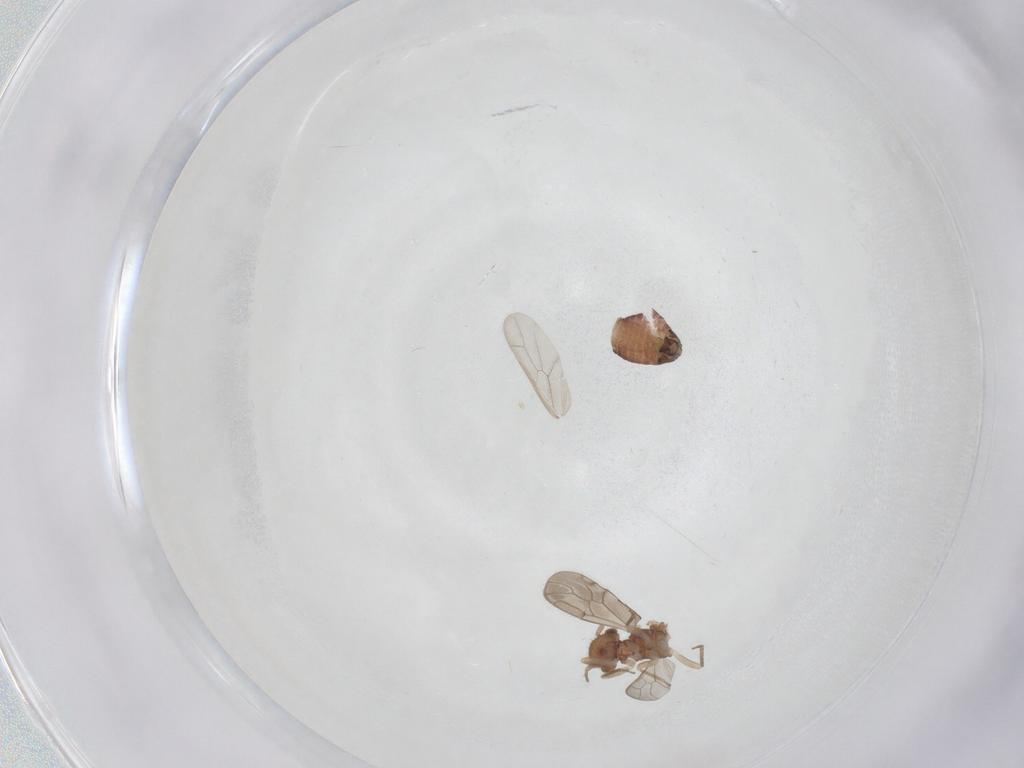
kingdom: Animalia
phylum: Arthropoda
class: Insecta
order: Psocodea
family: Ectopsocidae
